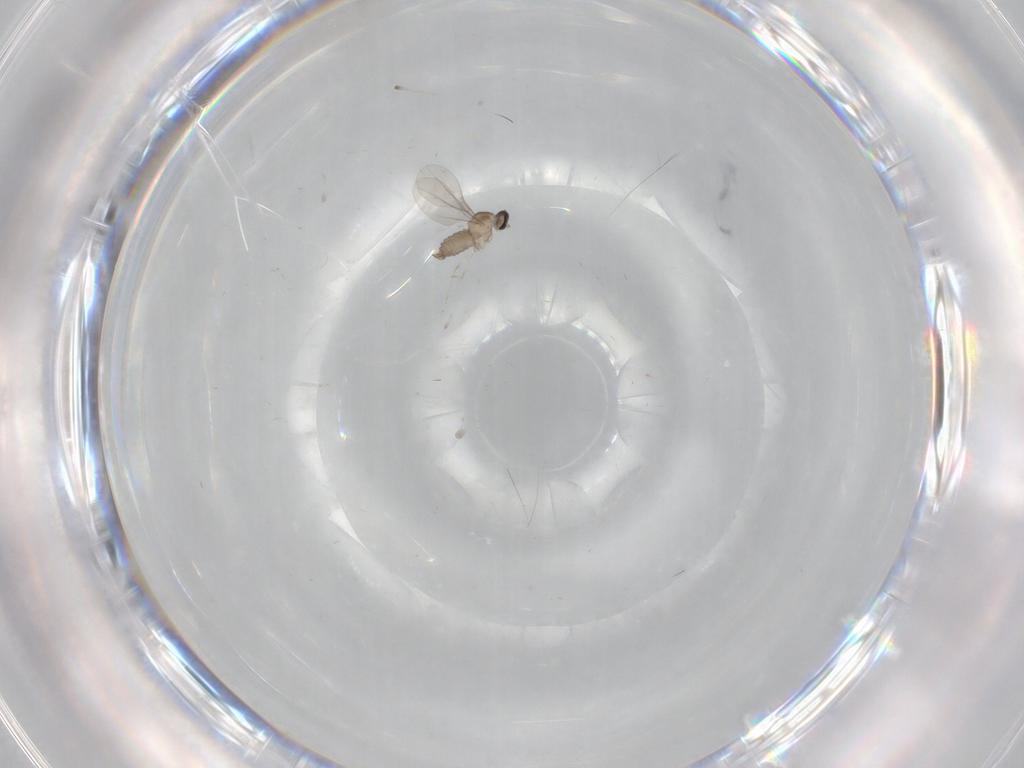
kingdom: Animalia
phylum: Arthropoda
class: Insecta
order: Diptera
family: Cecidomyiidae
